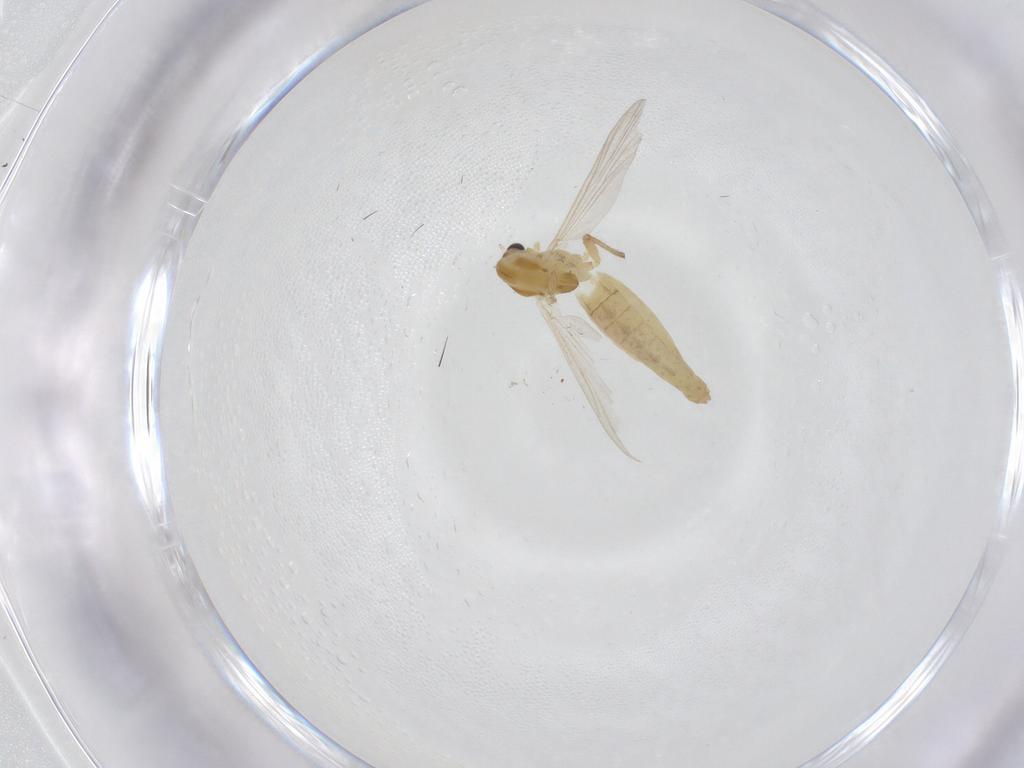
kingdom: Animalia
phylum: Arthropoda
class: Insecta
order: Diptera
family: Chironomidae
